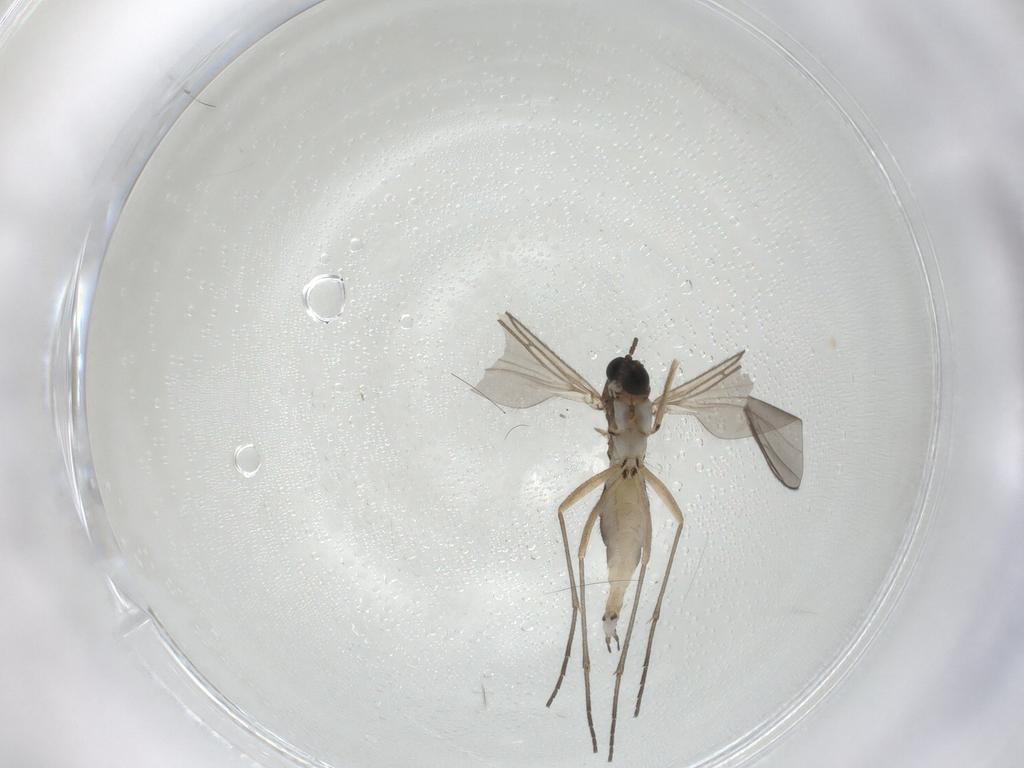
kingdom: Animalia
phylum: Arthropoda
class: Insecta
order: Diptera
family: Sciaridae
